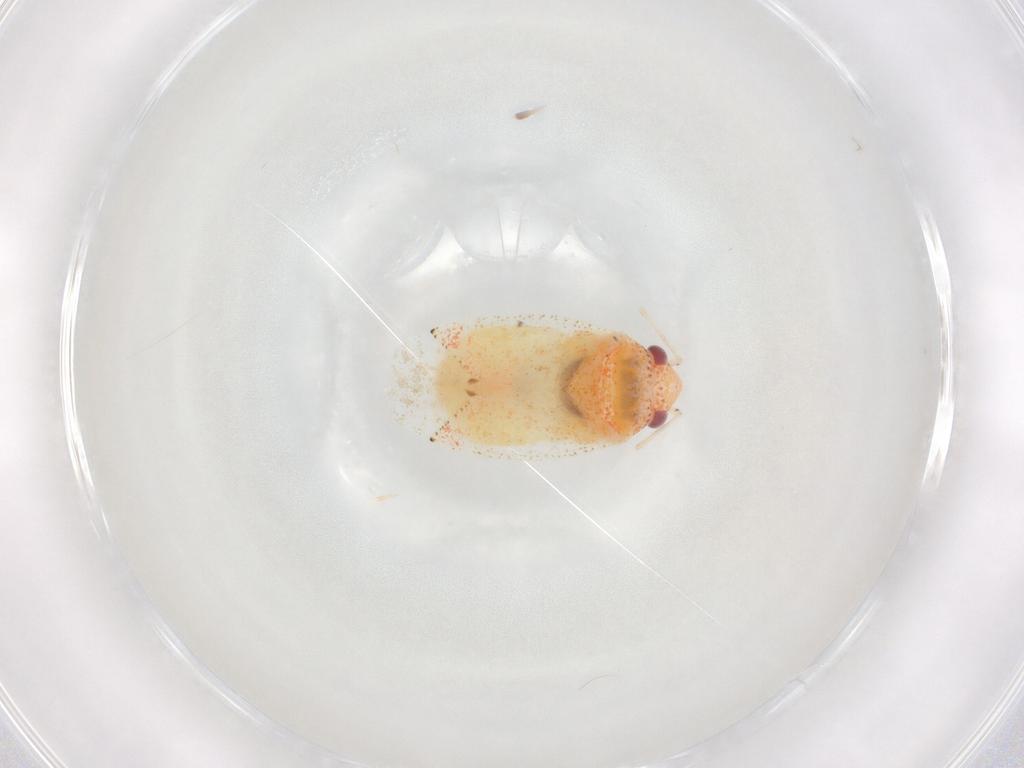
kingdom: Animalia
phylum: Arthropoda
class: Insecta
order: Hemiptera
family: Miridae
